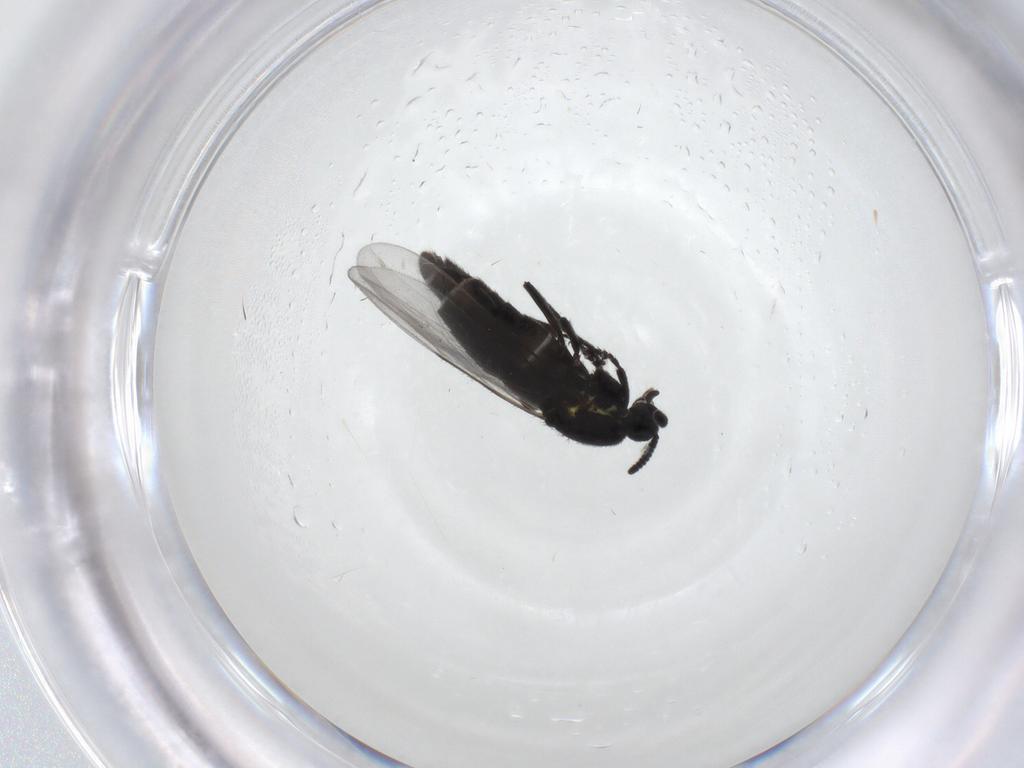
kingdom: Animalia
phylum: Arthropoda
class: Insecta
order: Diptera
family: Scatopsidae
